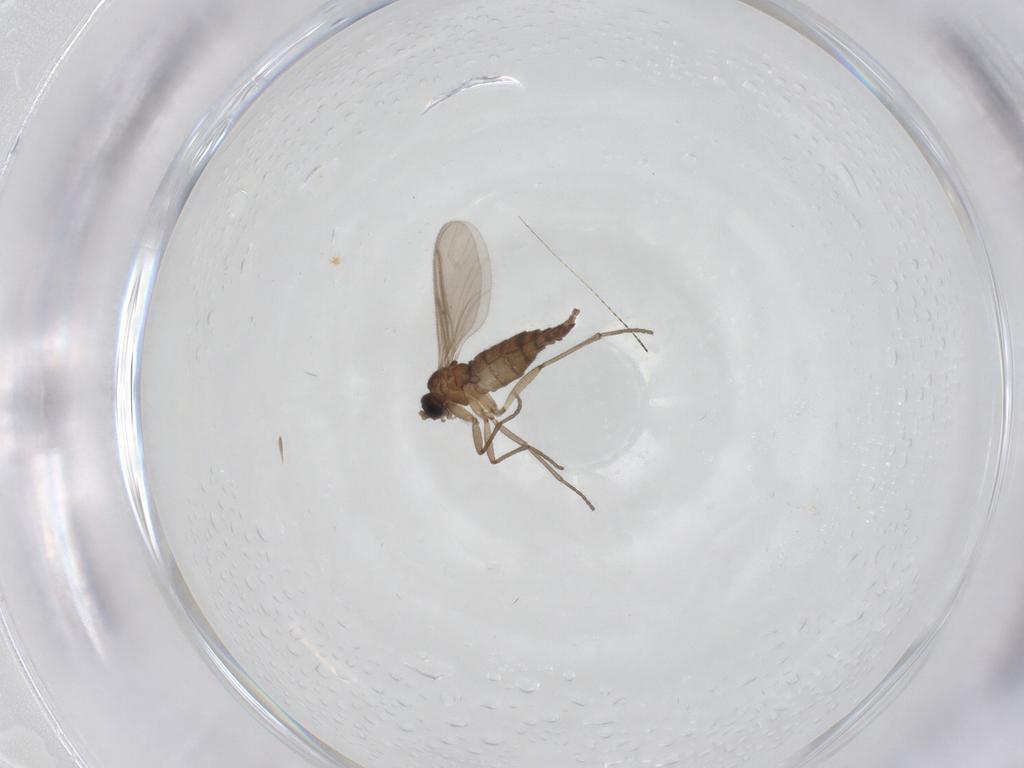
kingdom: Animalia
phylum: Arthropoda
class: Insecta
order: Diptera
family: Sciaridae
